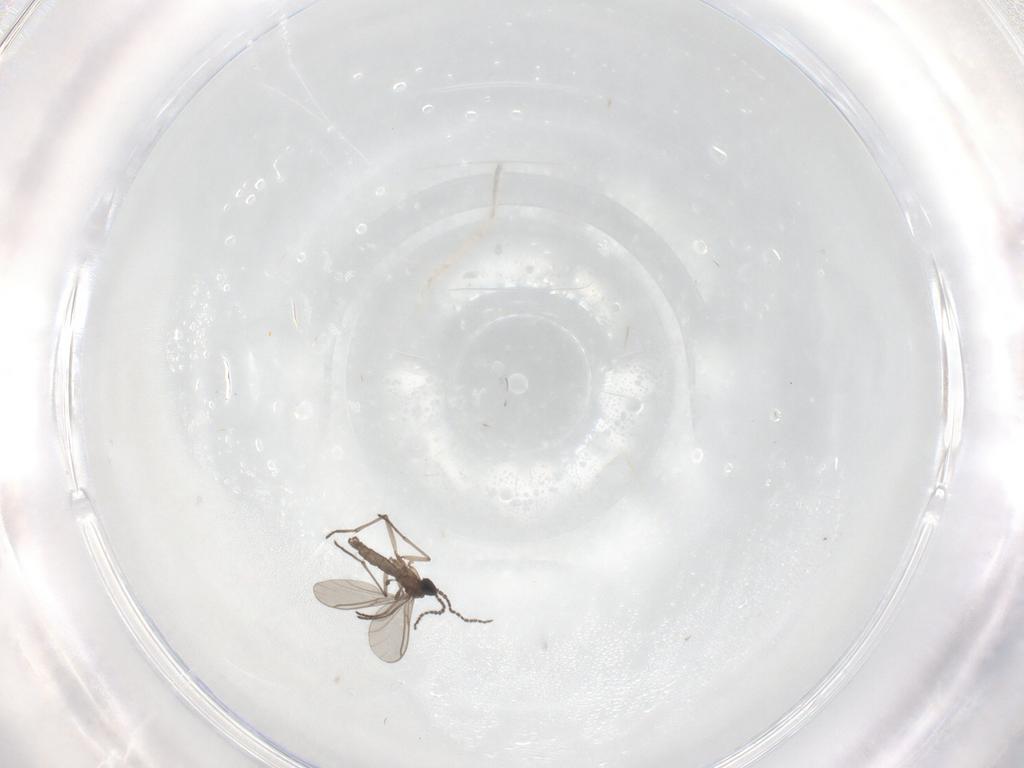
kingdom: Animalia
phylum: Arthropoda
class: Insecta
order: Diptera
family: Sciaridae
